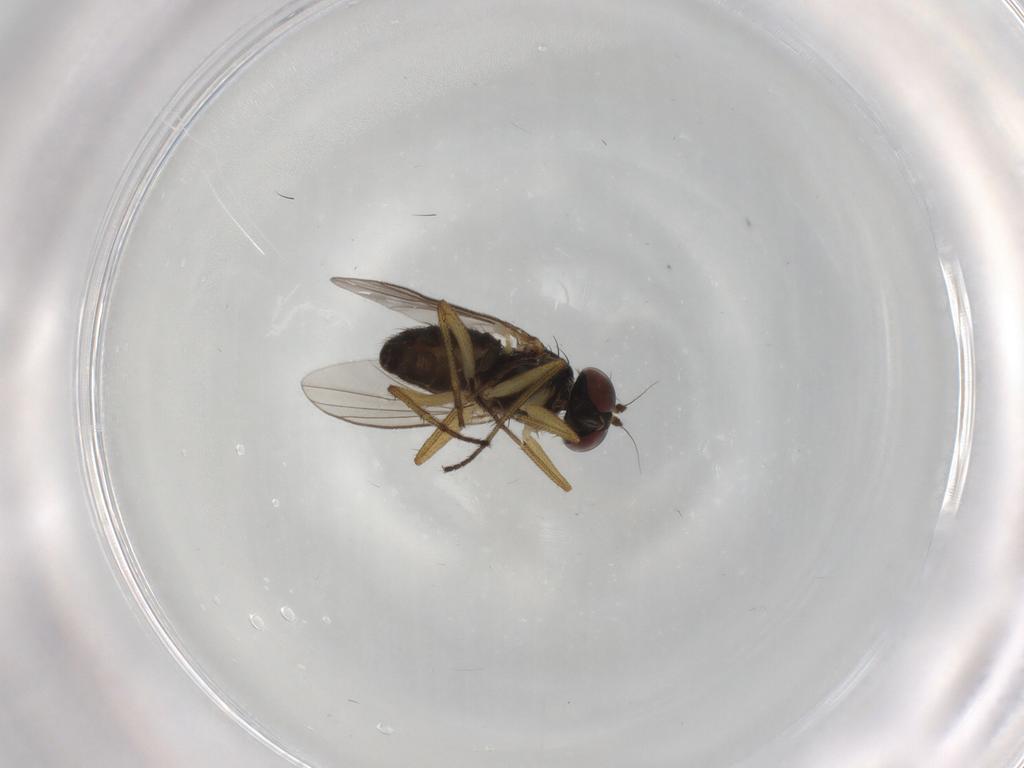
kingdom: Animalia
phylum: Arthropoda
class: Insecta
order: Diptera
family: Dolichopodidae
